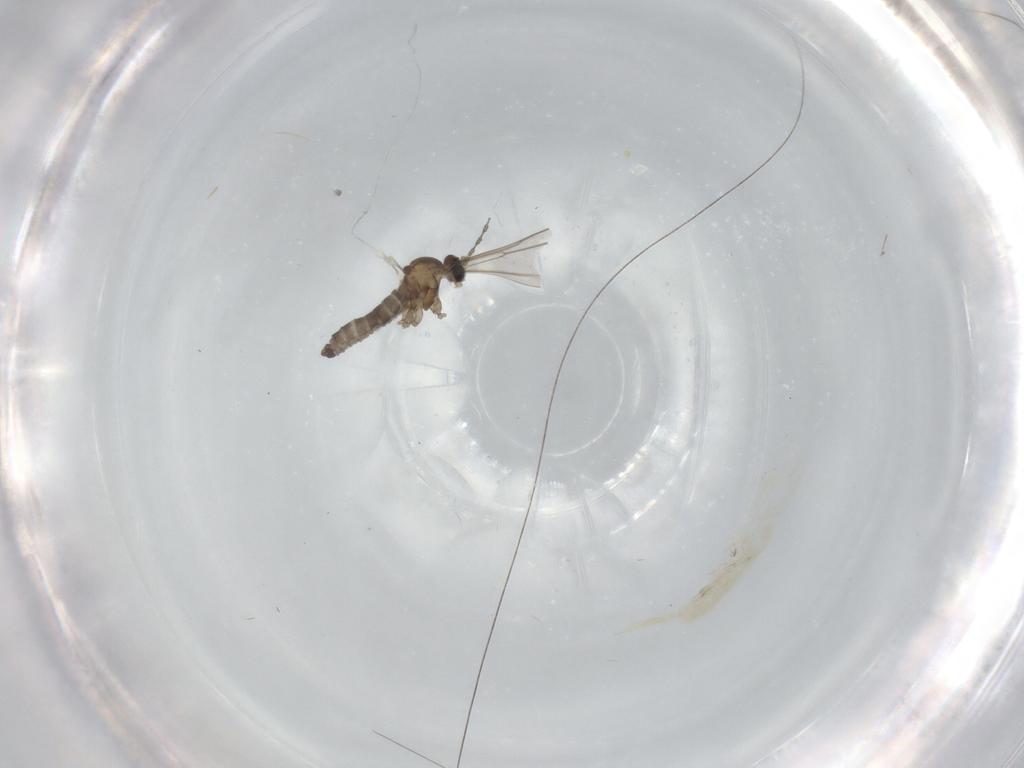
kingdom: Animalia
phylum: Arthropoda
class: Insecta
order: Diptera
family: Cecidomyiidae
